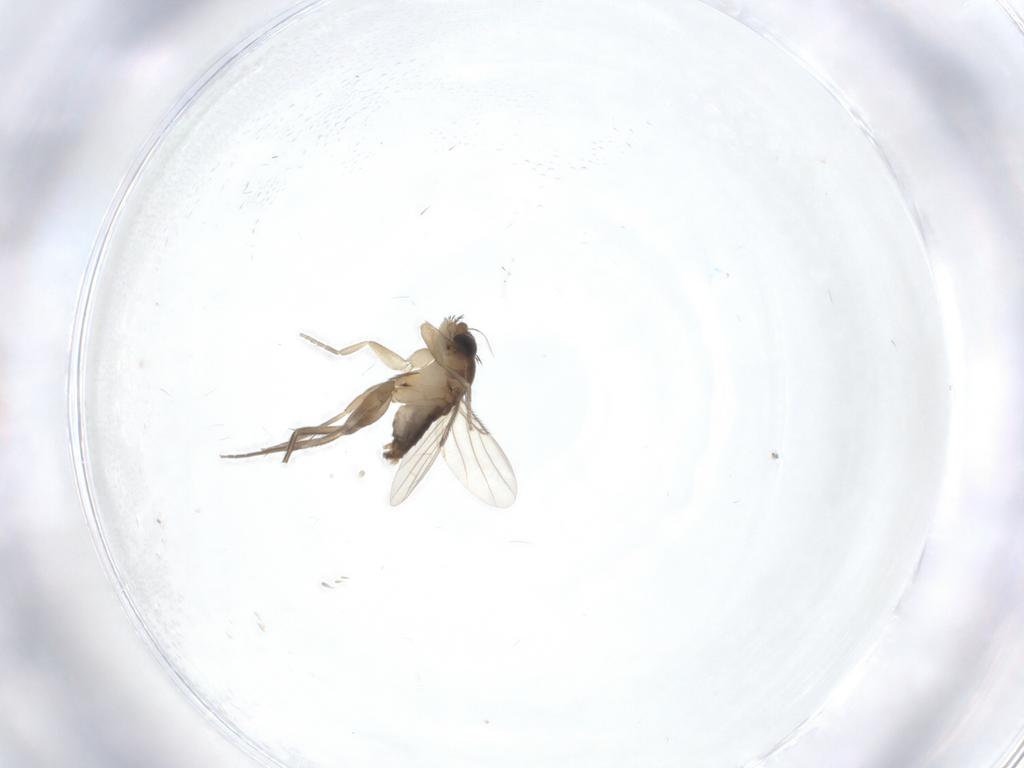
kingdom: Animalia
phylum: Arthropoda
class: Insecta
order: Diptera
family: Phoridae
